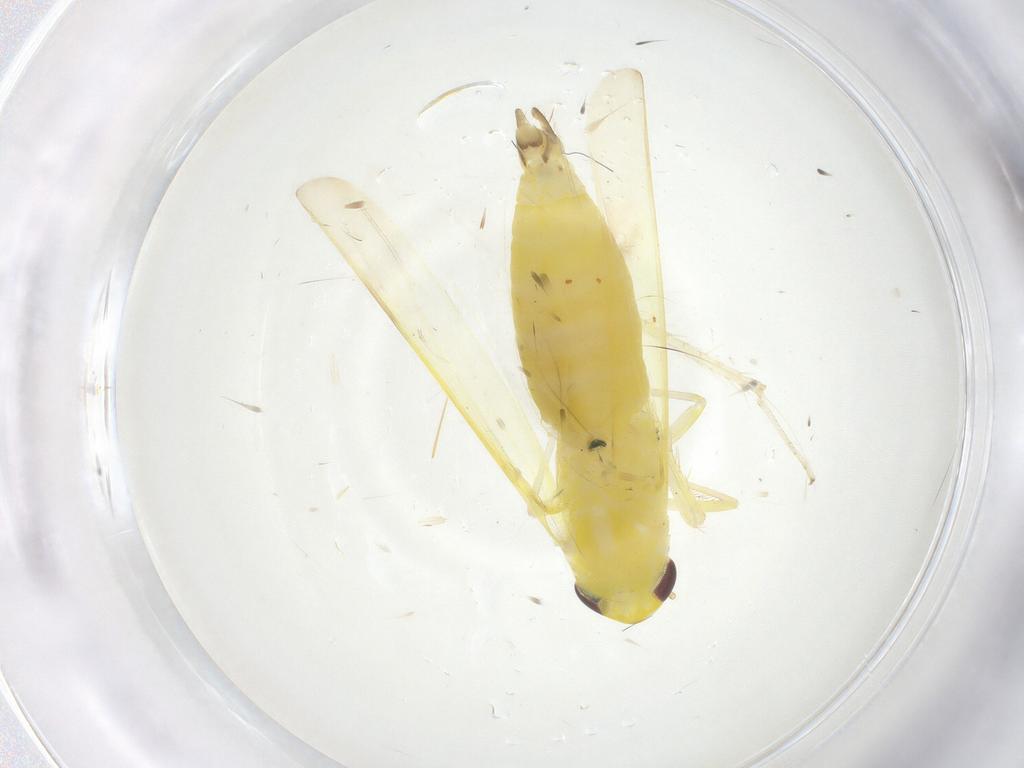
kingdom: Animalia
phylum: Arthropoda
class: Insecta
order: Hemiptera
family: Cicadellidae
